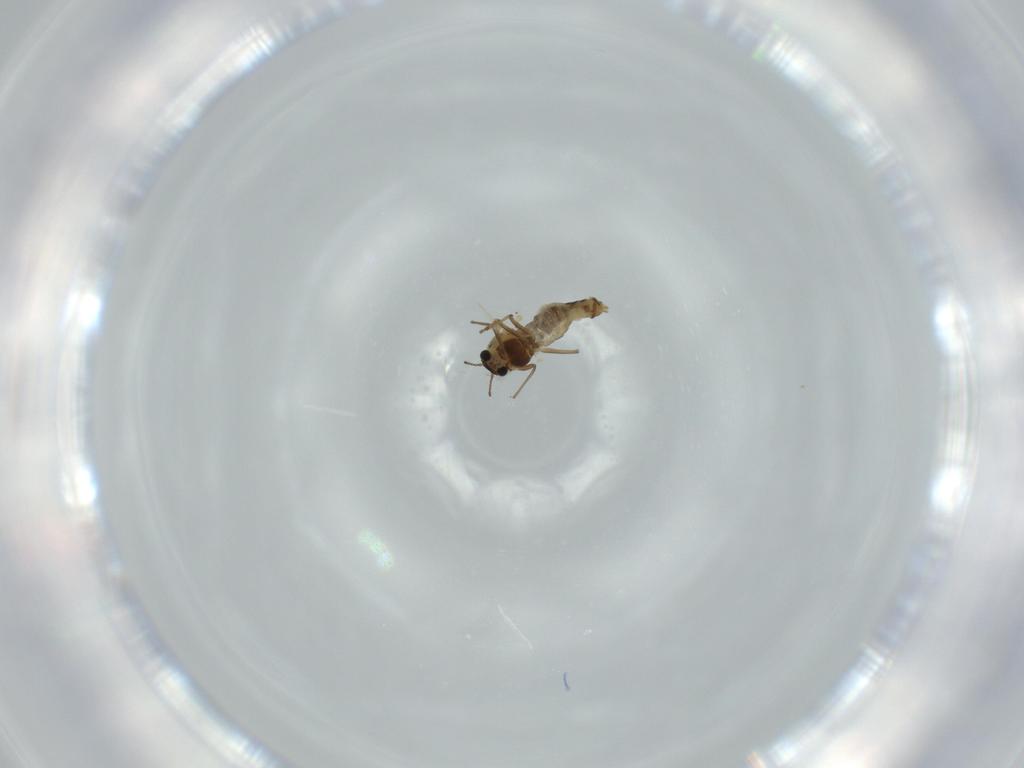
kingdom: Animalia
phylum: Arthropoda
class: Insecta
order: Diptera
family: Chironomidae
